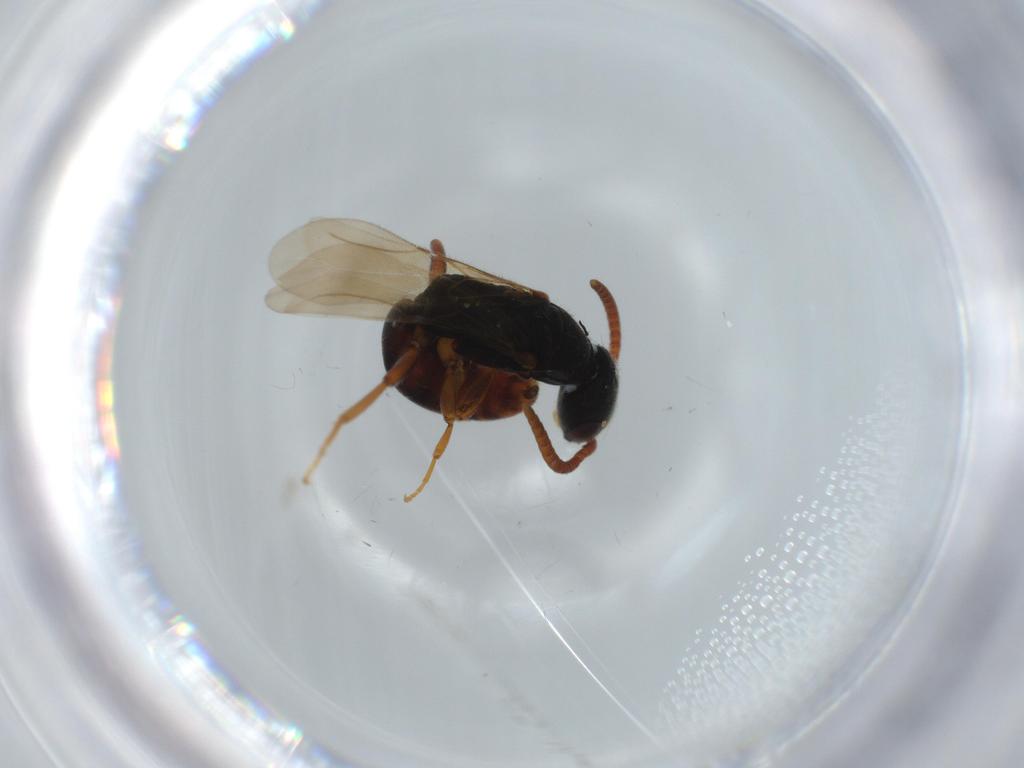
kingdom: Animalia
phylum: Arthropoda
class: Insecta
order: Hymenoptera
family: Bethylidae
